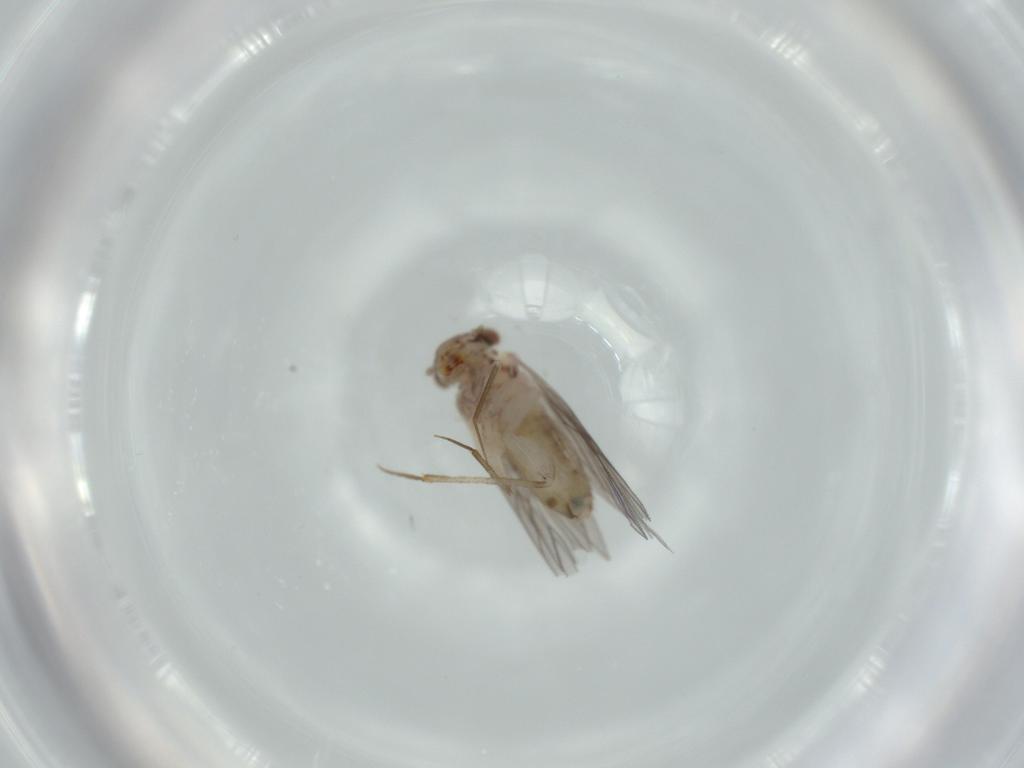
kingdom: Animalia
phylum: Arthropoda
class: Insecta
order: Psocodea
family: Lepidopsocidae
